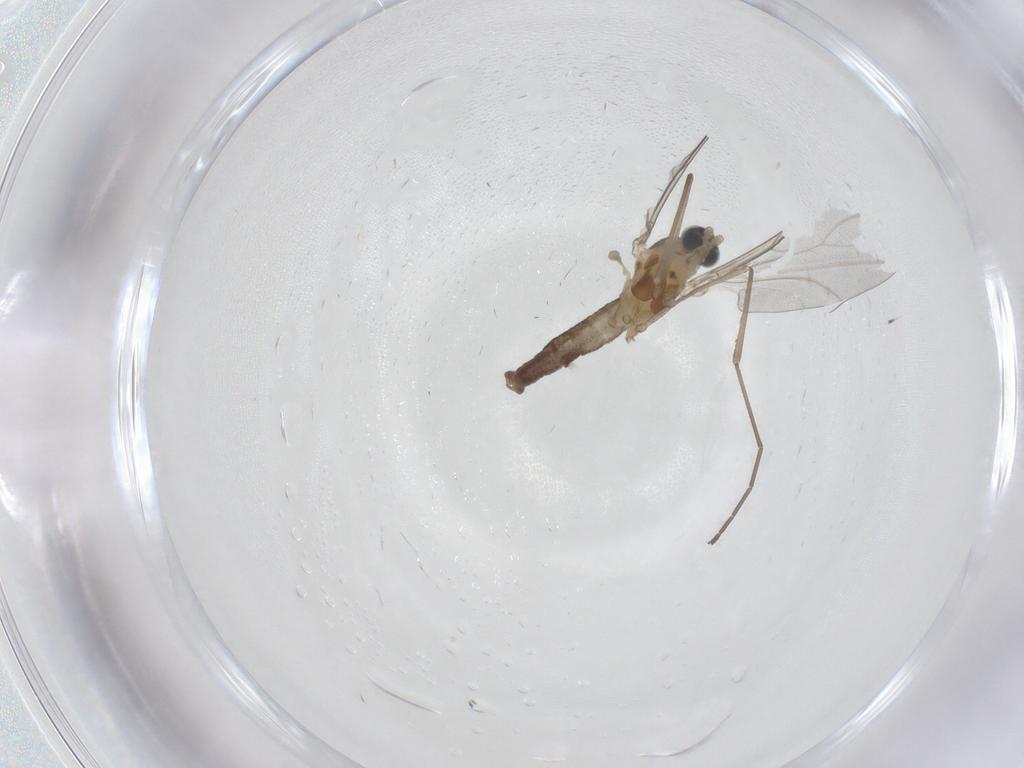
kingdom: Animalia
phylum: Arthropoda
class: Insecta
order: Diptera
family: Cecidomyiidae
